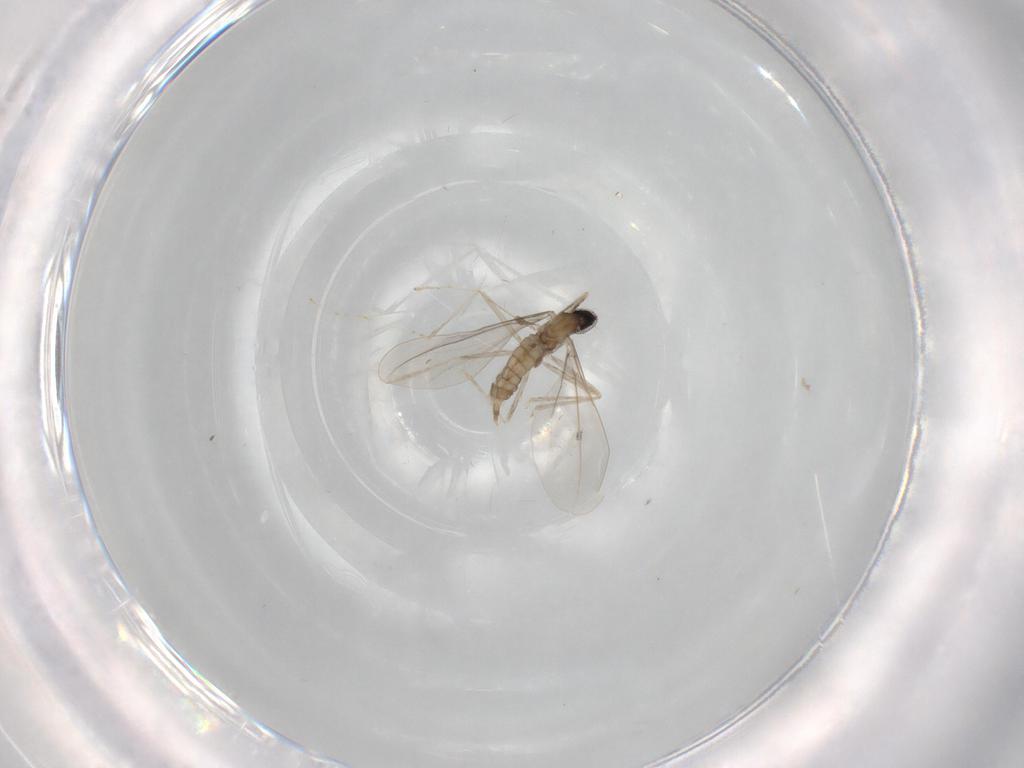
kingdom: Animalia
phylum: Arthropoda
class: Insecta
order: Diptera
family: Cecidomyiidae
